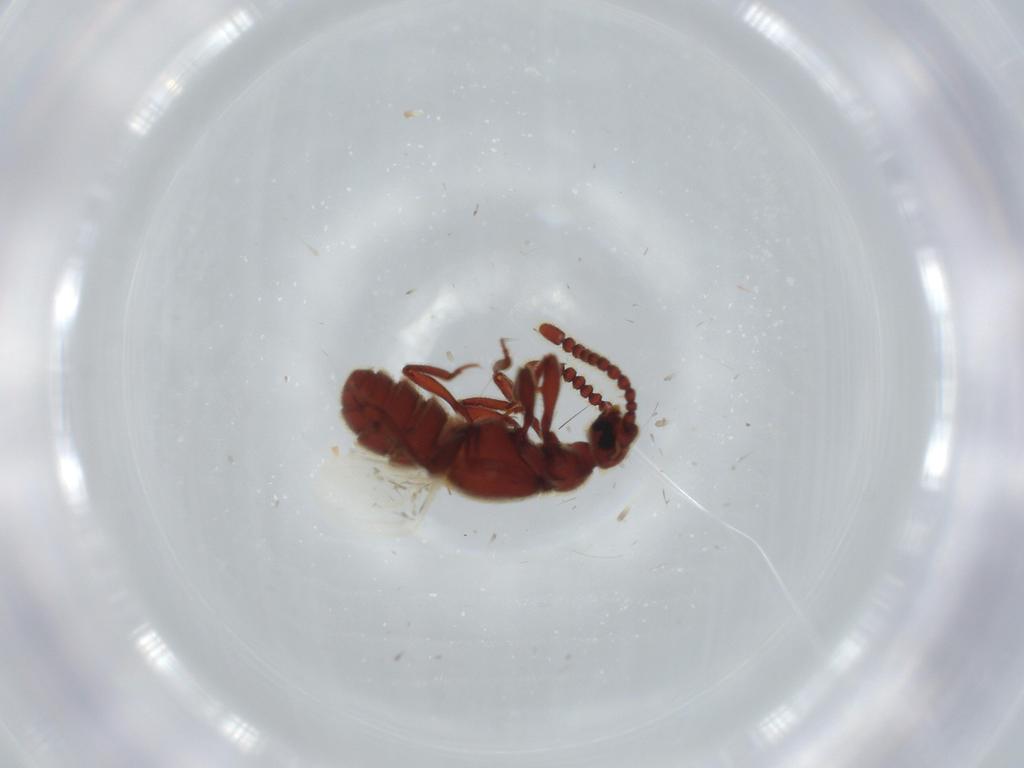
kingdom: Animalia
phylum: Arthropoda
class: Insecta
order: Coleoptera
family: Staphylinidae
